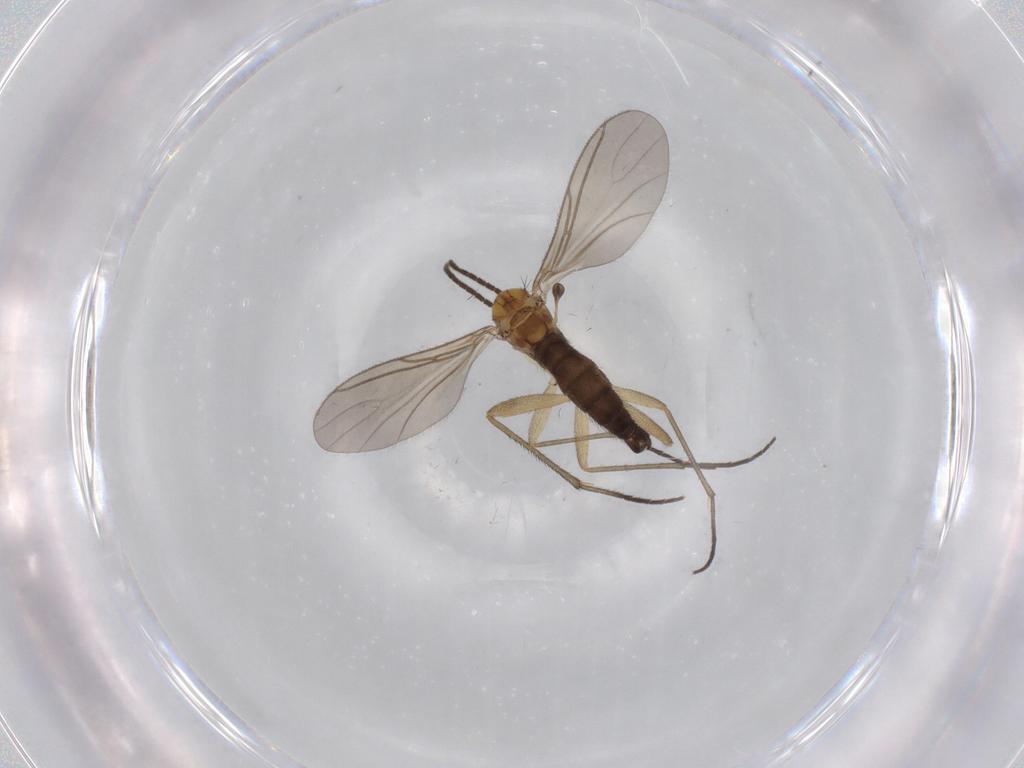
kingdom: Animalia
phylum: Arthropoda
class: Insecta
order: Diptera
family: Cecidomyiidae
